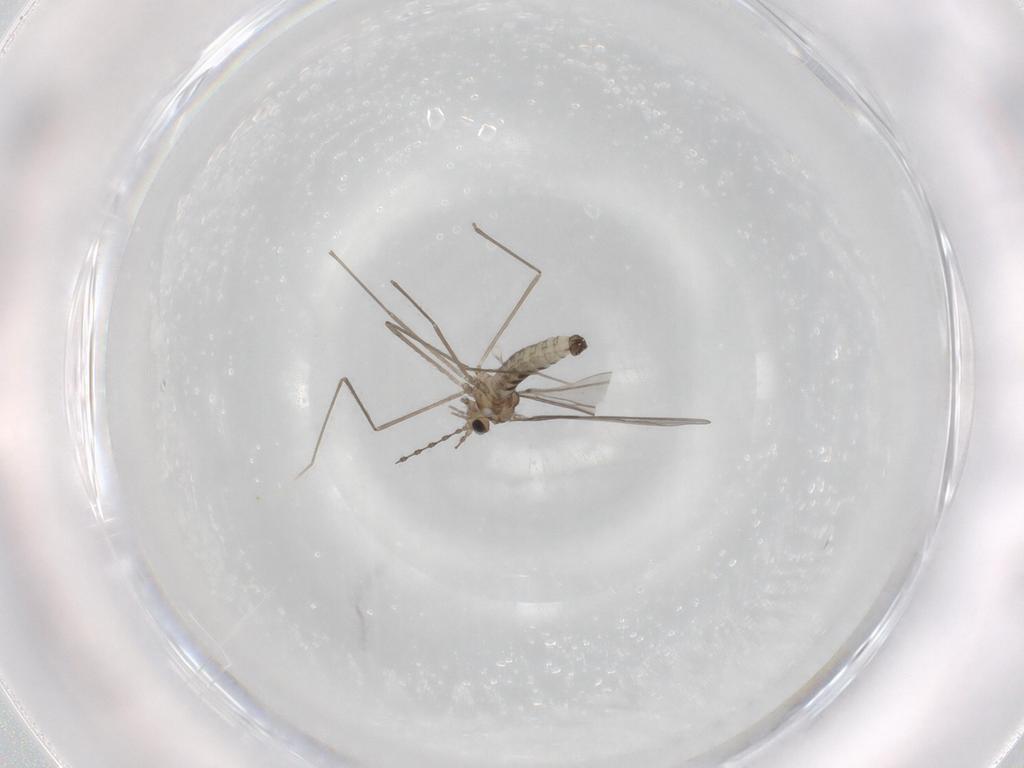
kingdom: Animalia
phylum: Arthropoda
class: Insecta
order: Diptera
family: Cecidomyiidae
